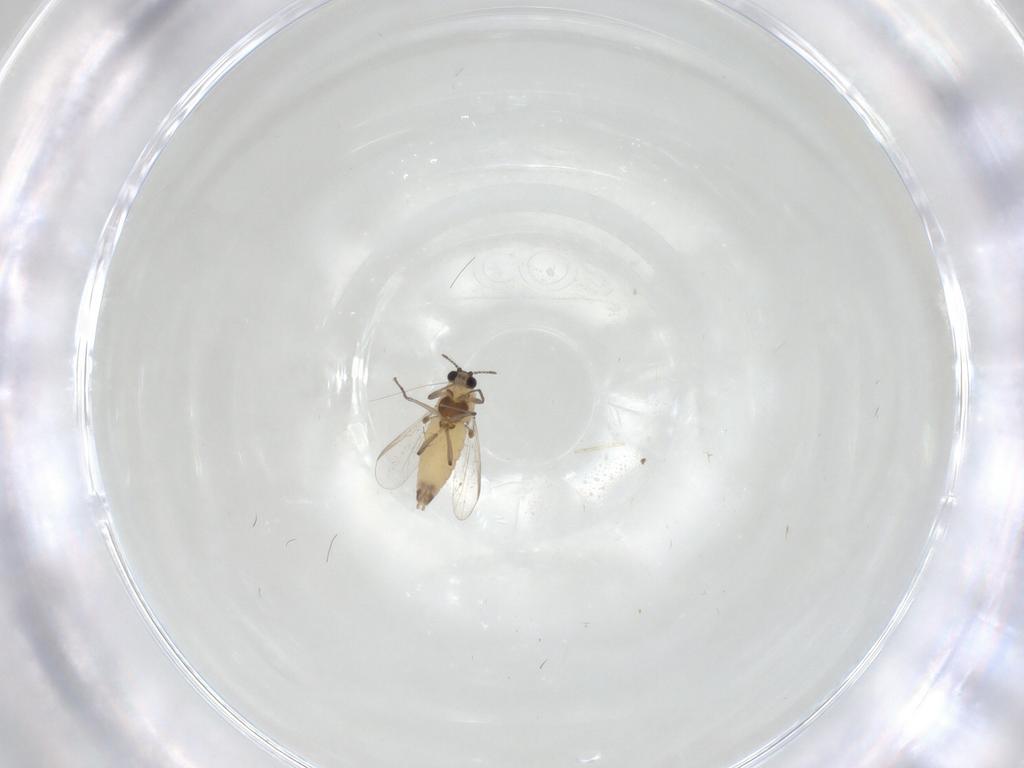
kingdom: Animalia
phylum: Arthropoda
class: Insecta
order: Diptera
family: Chironomidae
